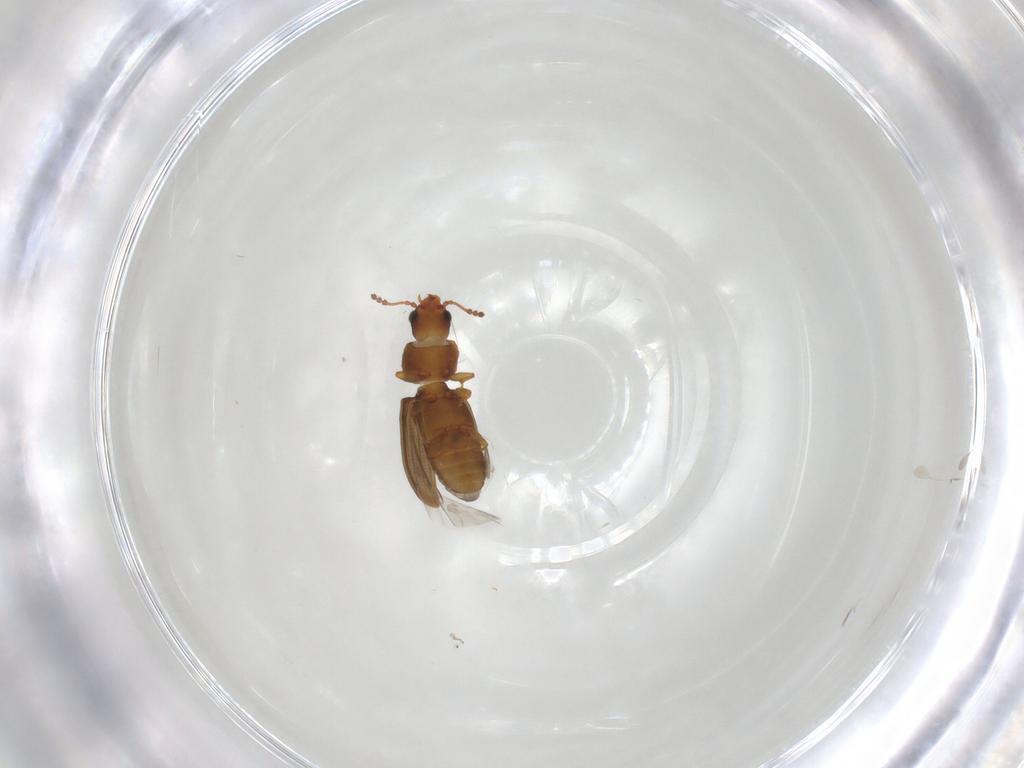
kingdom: Animalia
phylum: Arthropoda
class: Insecta
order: Coleoptera
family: Staphylinidae
